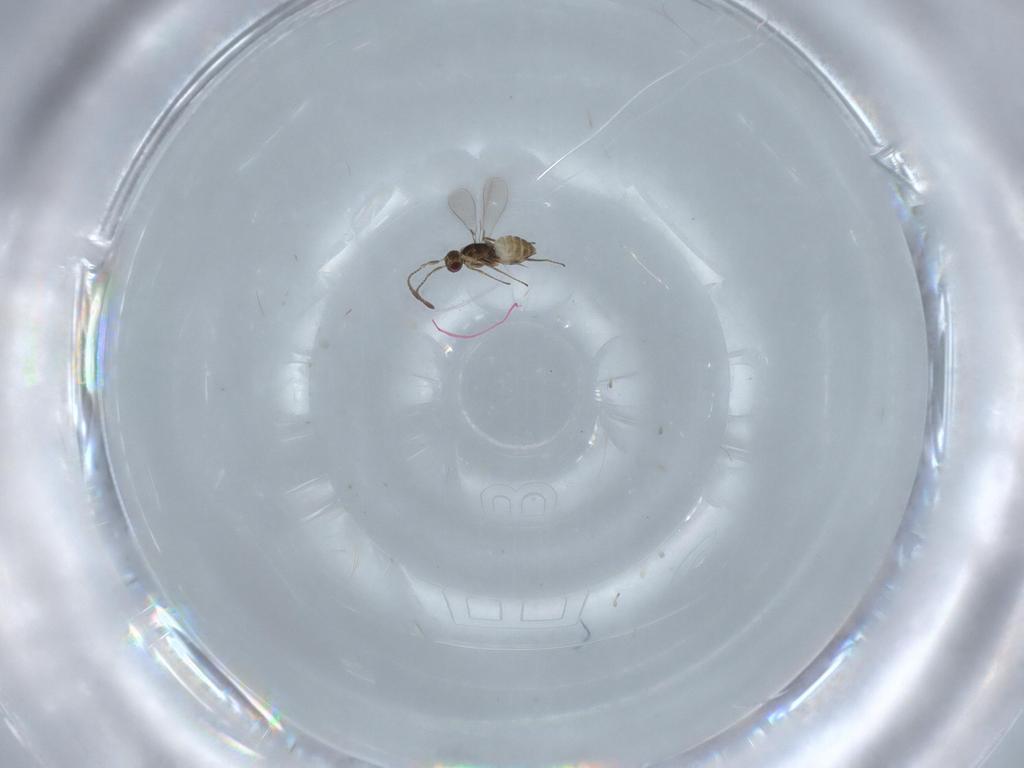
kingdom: Animalia
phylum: Arthropoda
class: Insecta
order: Hymenoptera
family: Mymaridae
